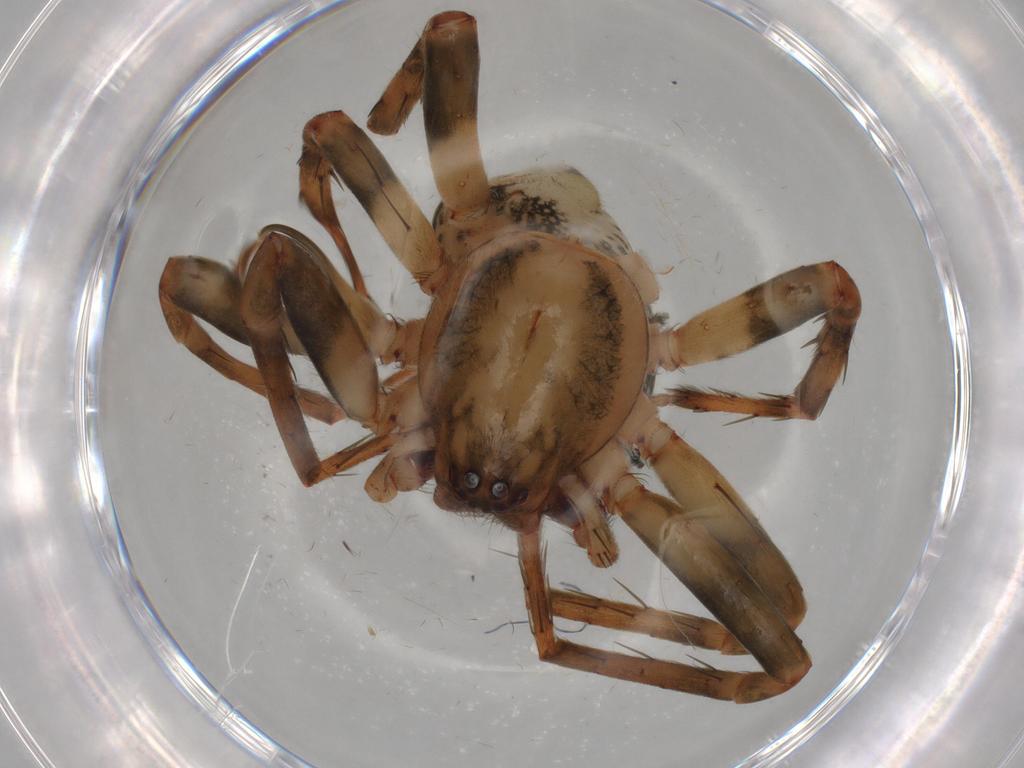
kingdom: Animalia
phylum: Arthropoda
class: Arachnida
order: Araneae
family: Anyphaenidae
